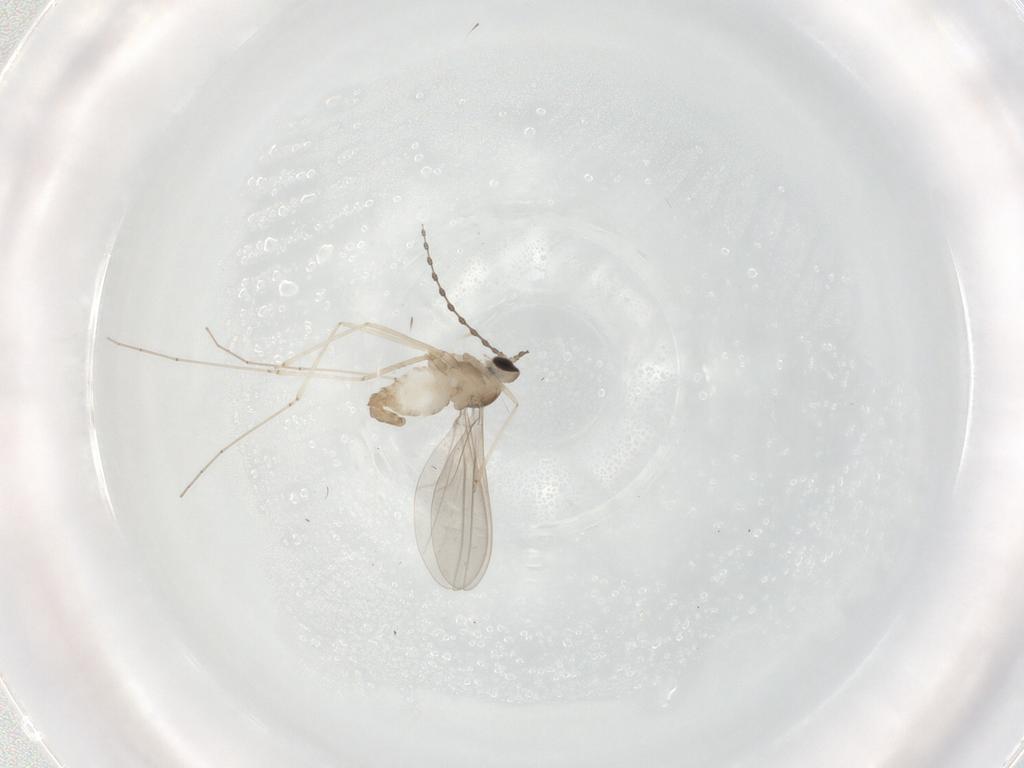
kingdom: Animalia
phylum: Arthropoda
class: Insecta
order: Diptera
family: Cecidomyiidae
